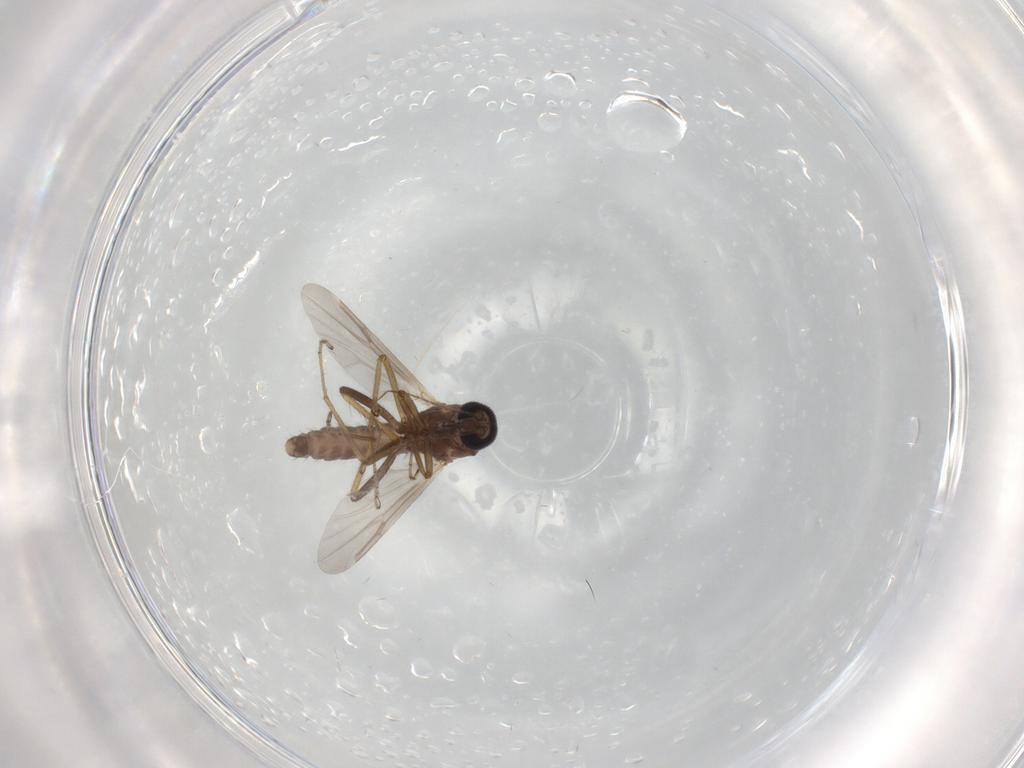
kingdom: Animalia
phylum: Arthropoda
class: Insecta
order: Diptera
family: Ceratopogonidae
